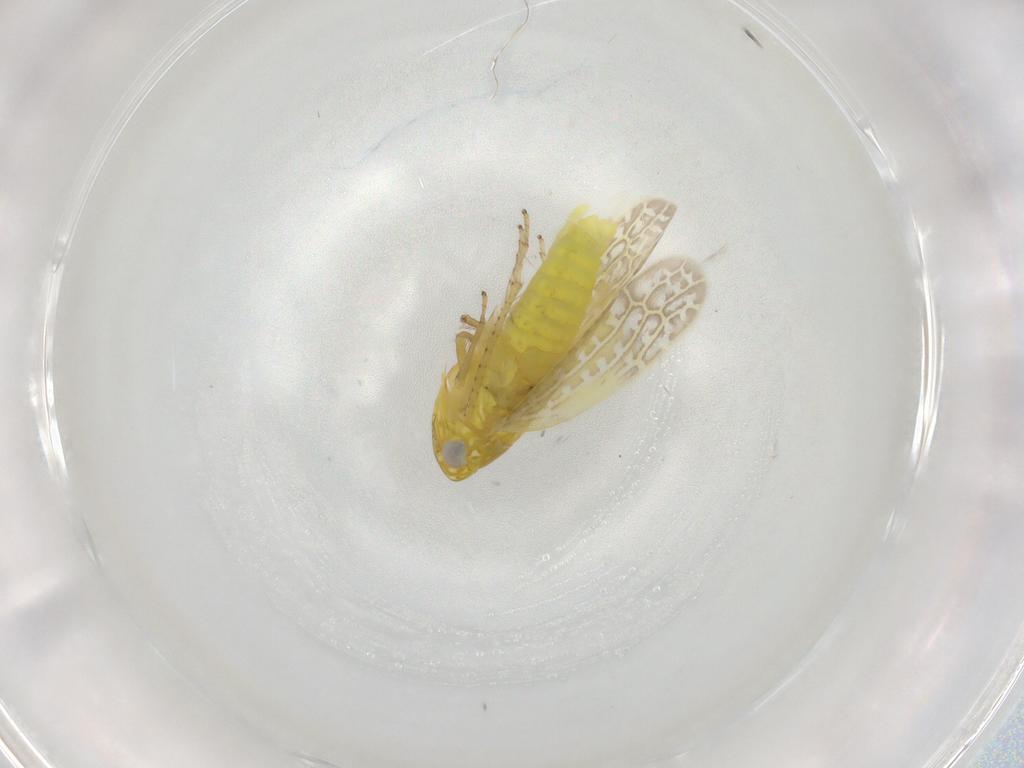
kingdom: Animalia
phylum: Arthropoda
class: Insecta
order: Hemiptera
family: Cicadellidae
